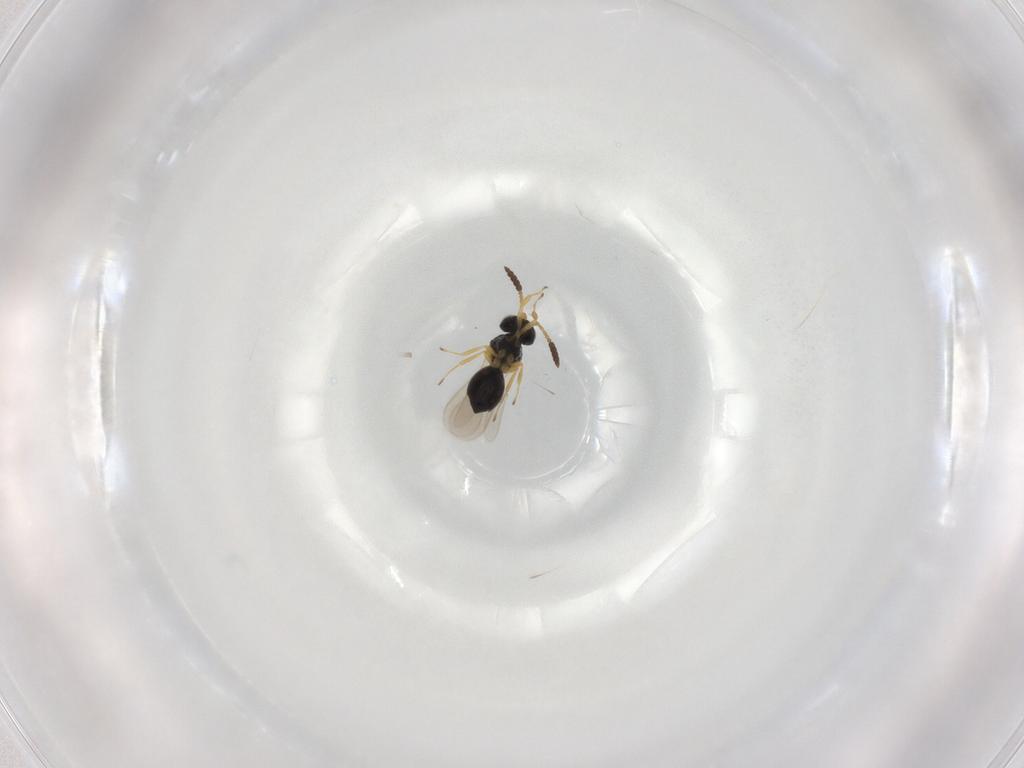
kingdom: Animalia
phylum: Arthropoda
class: Insecta
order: Hymenoptera
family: Scelionidae
